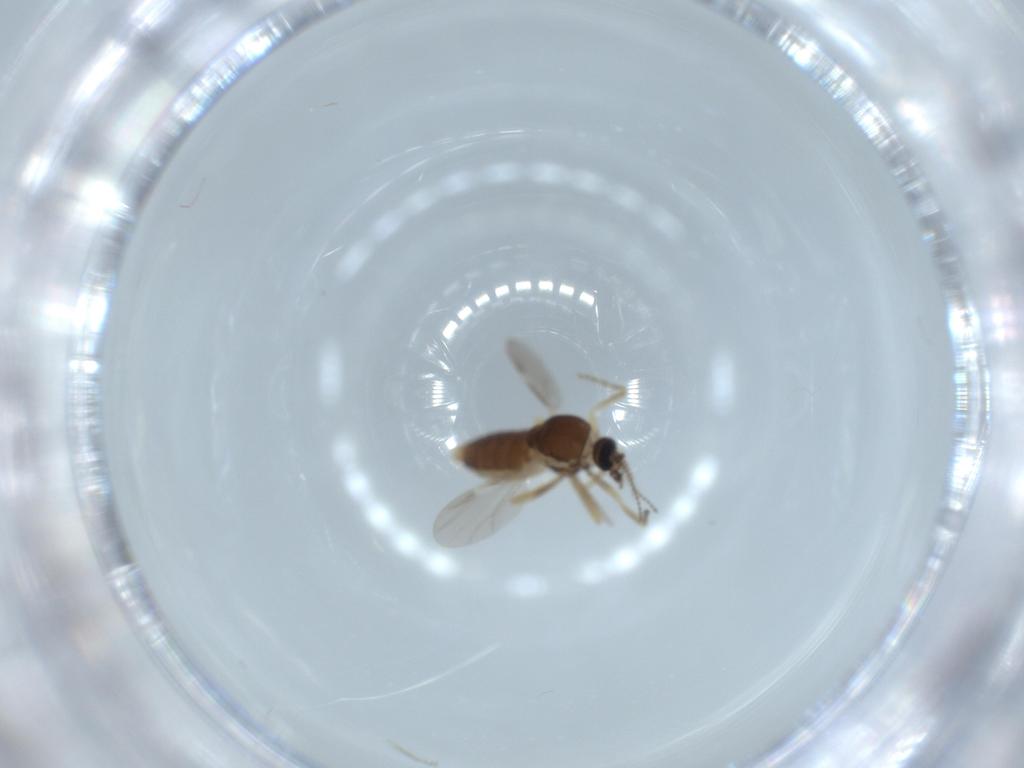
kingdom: Animalia
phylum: Arthropoda
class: Insecta
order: Diptera
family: Ceratopogonidae
